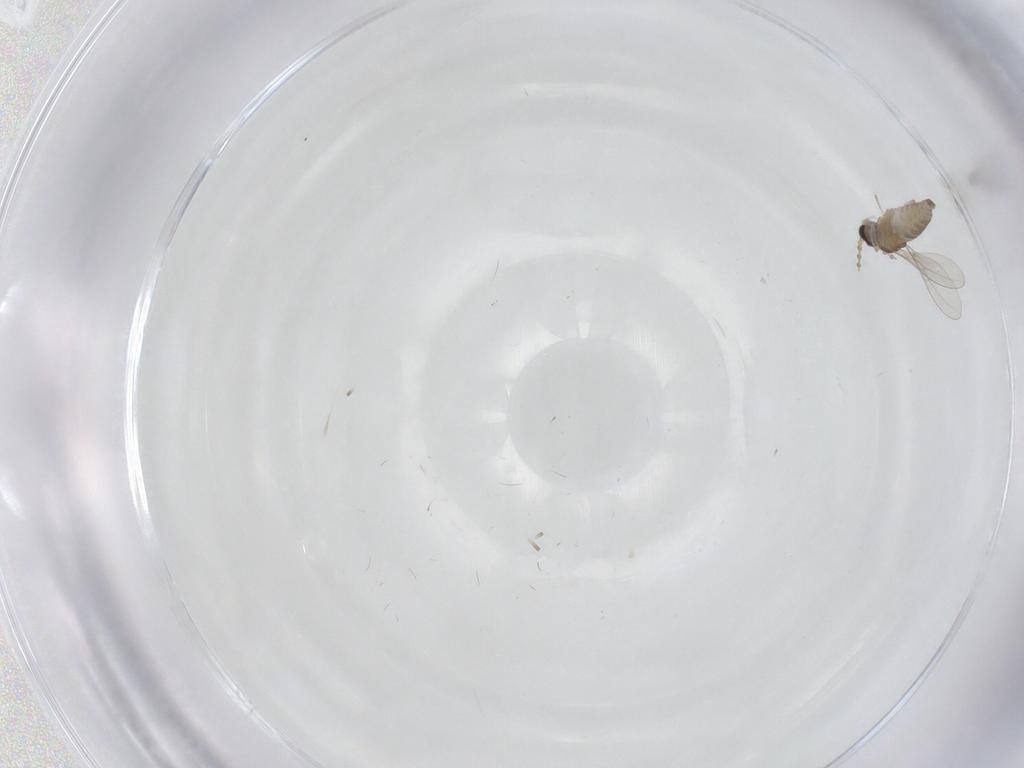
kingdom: Animalia
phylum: Arthropoda
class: Insecta
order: Diptera
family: Cecidomyiidae
